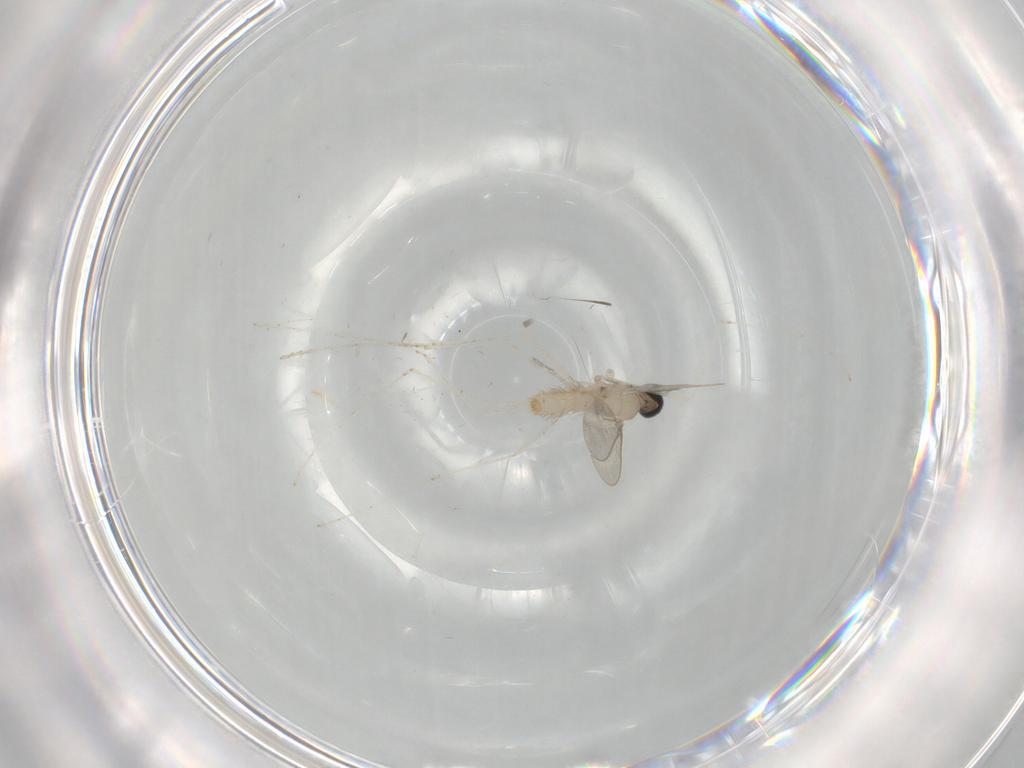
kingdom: Animalia
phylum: Arthropoda
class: Insecta
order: Diptera
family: Cecidomyiidae
